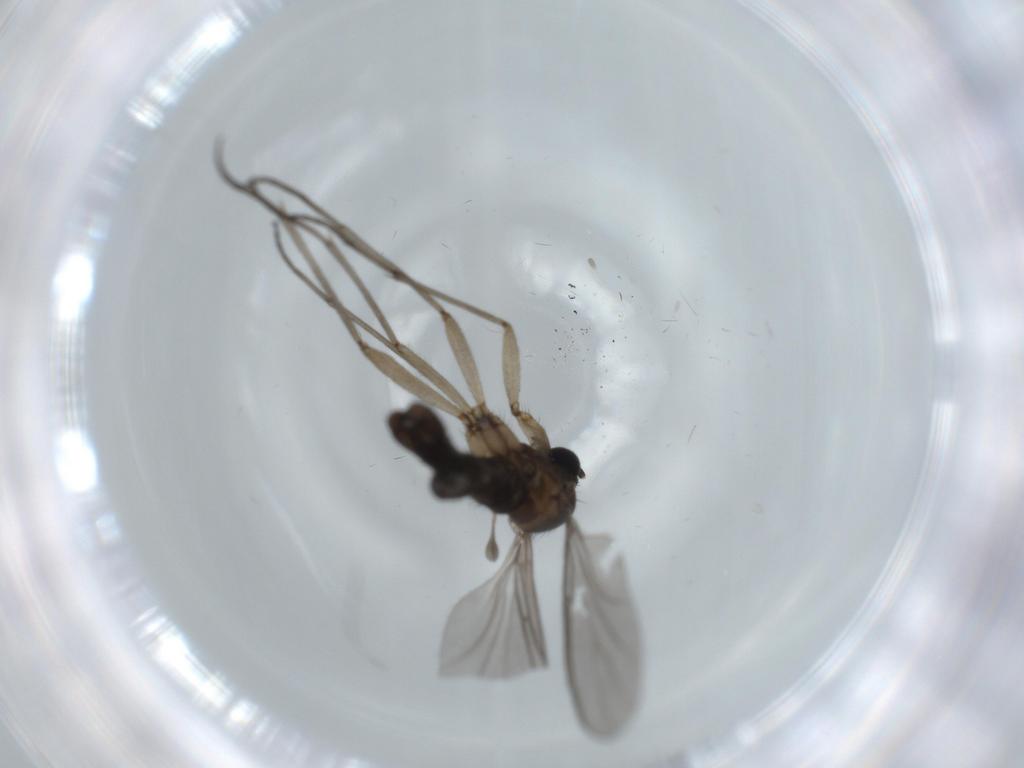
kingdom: Animalia
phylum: Arthropoda
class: Insecta
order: Diptera
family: Sciaridae
